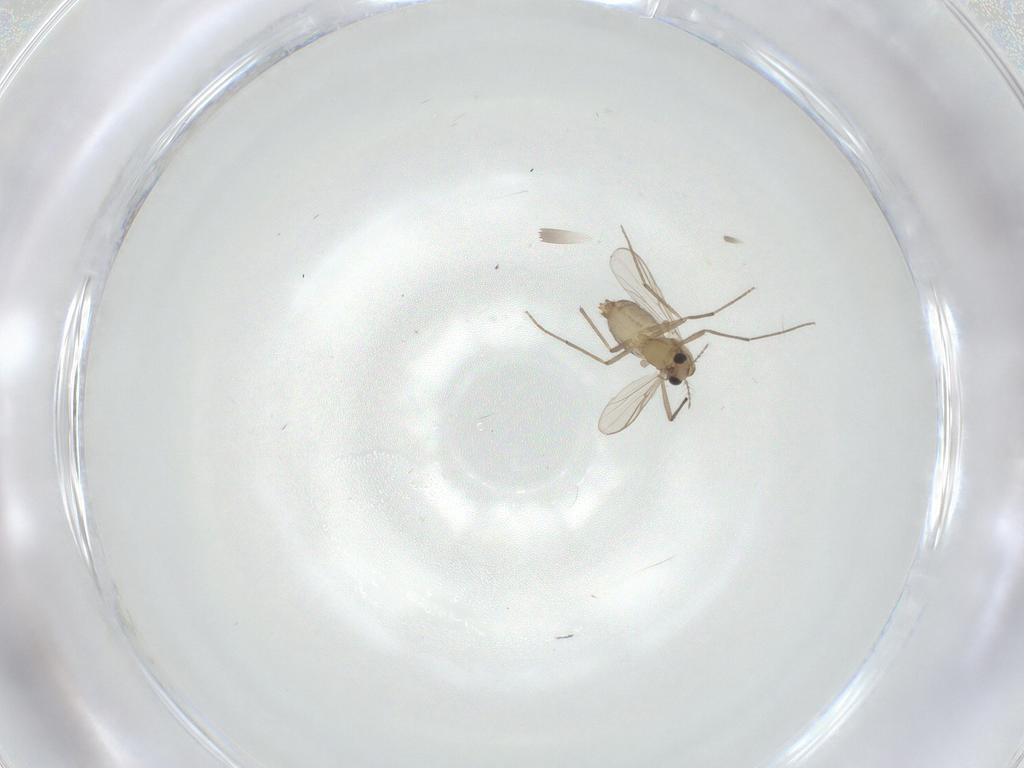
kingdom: Animalia
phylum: Arthropoda
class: Insecta
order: Diptera
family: Chironomidae
